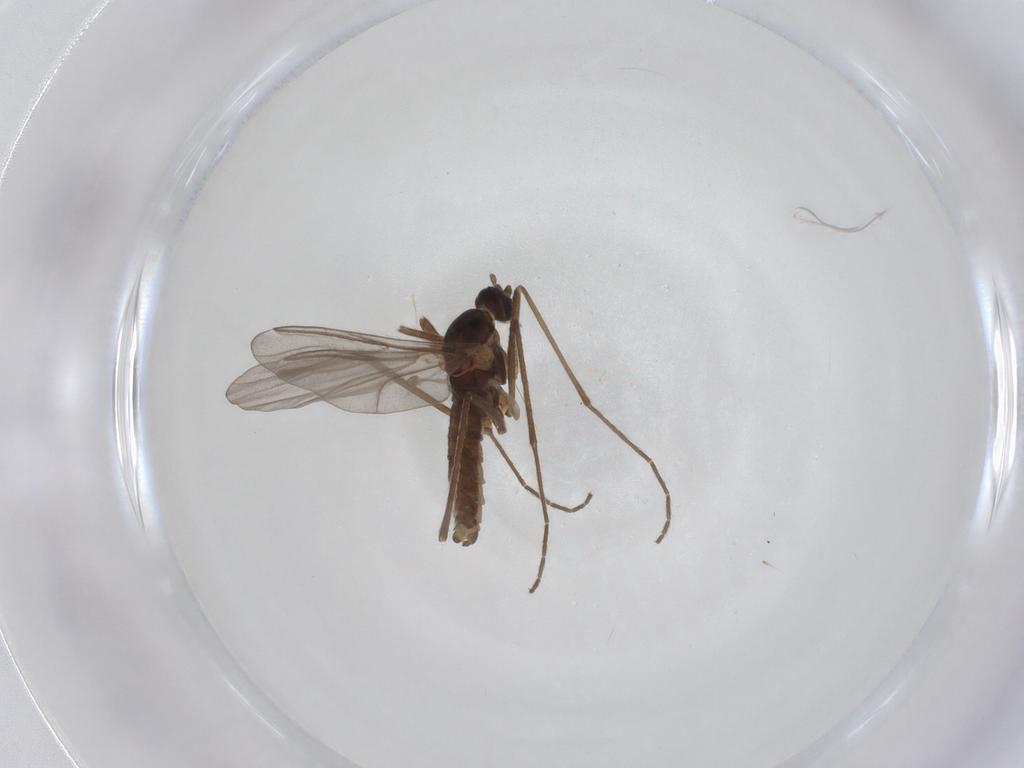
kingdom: Animalia
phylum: Arthropoda
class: Insecta
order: Diptera
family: Cecidomyiidae
